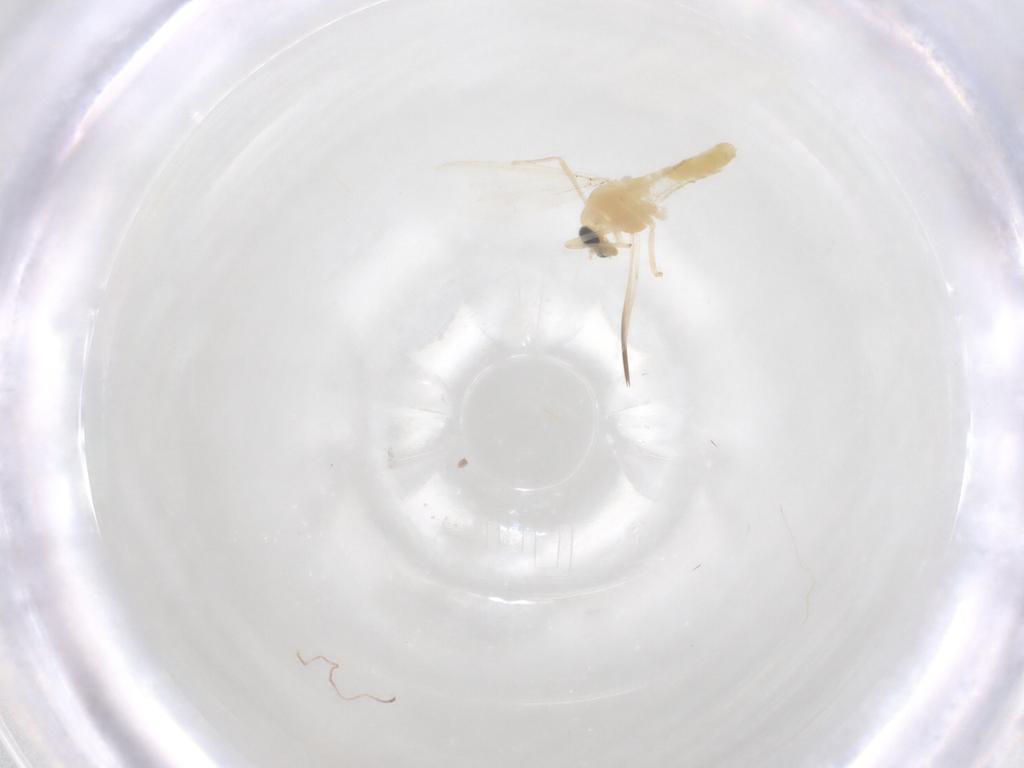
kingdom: Animalia
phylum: Arthropoda
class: Insecta
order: Diptera
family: Chironomidae
